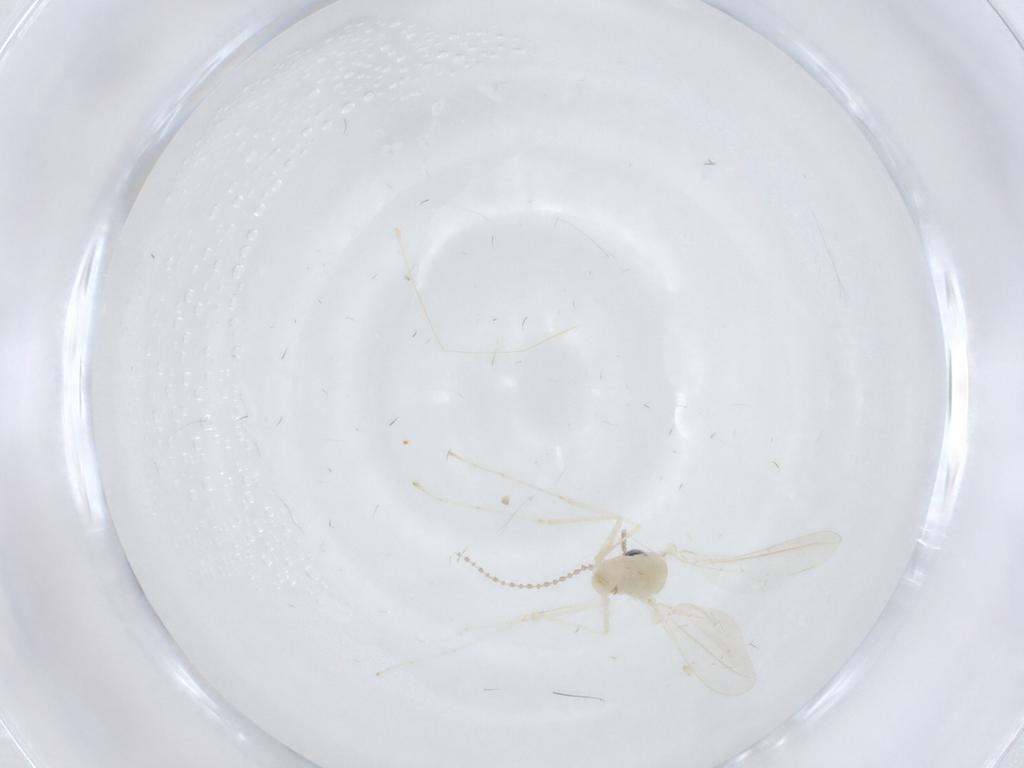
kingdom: Animalia
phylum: Arthropoda
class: Insecta
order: Diptera
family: Cecidomyiidae
